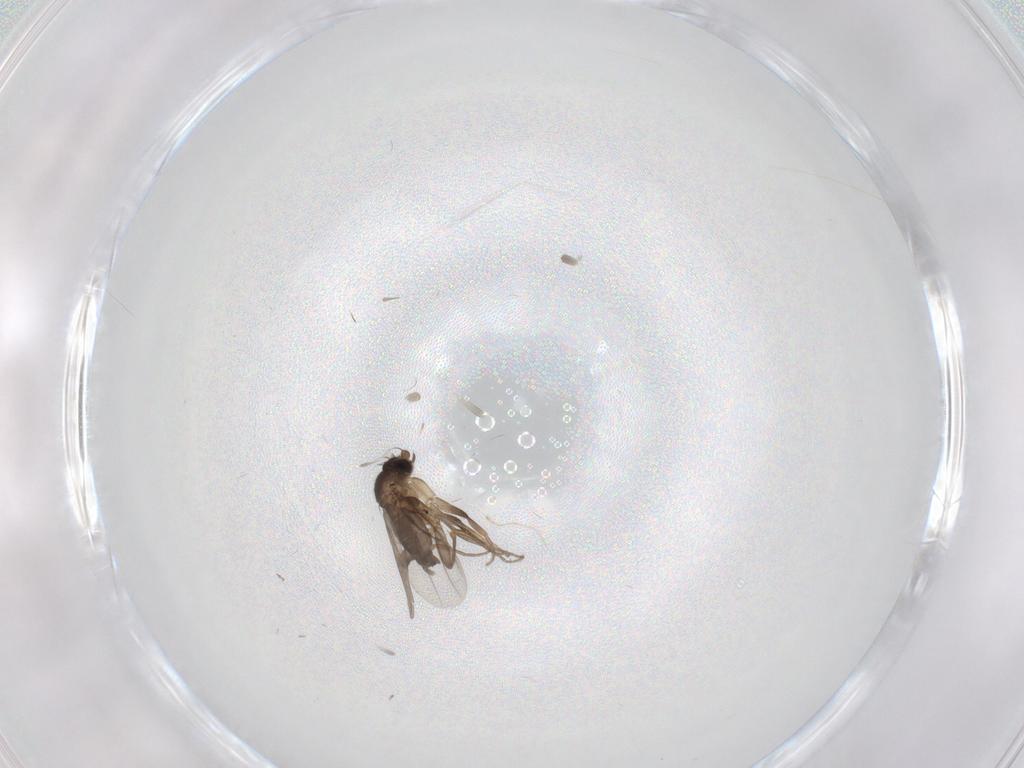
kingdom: Animalia
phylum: Arthropoda
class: Insecta
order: Diptera
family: Phoridae
